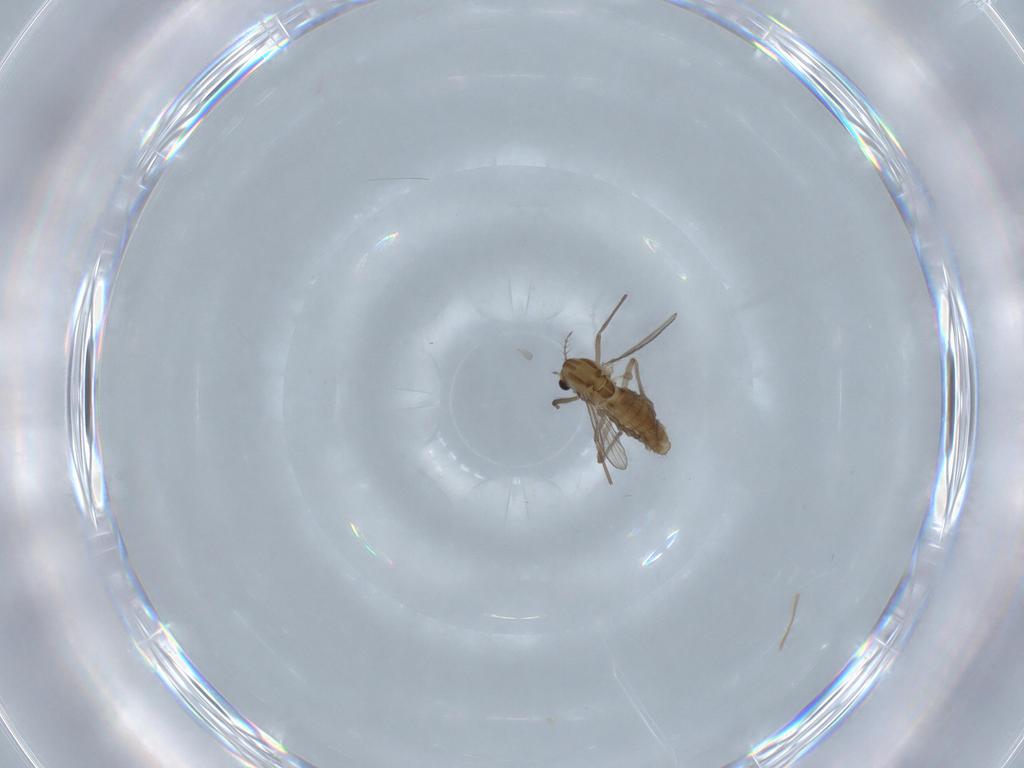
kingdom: Animalia
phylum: Arthropoda
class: Insecta
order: Diptera
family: Chironomidae
